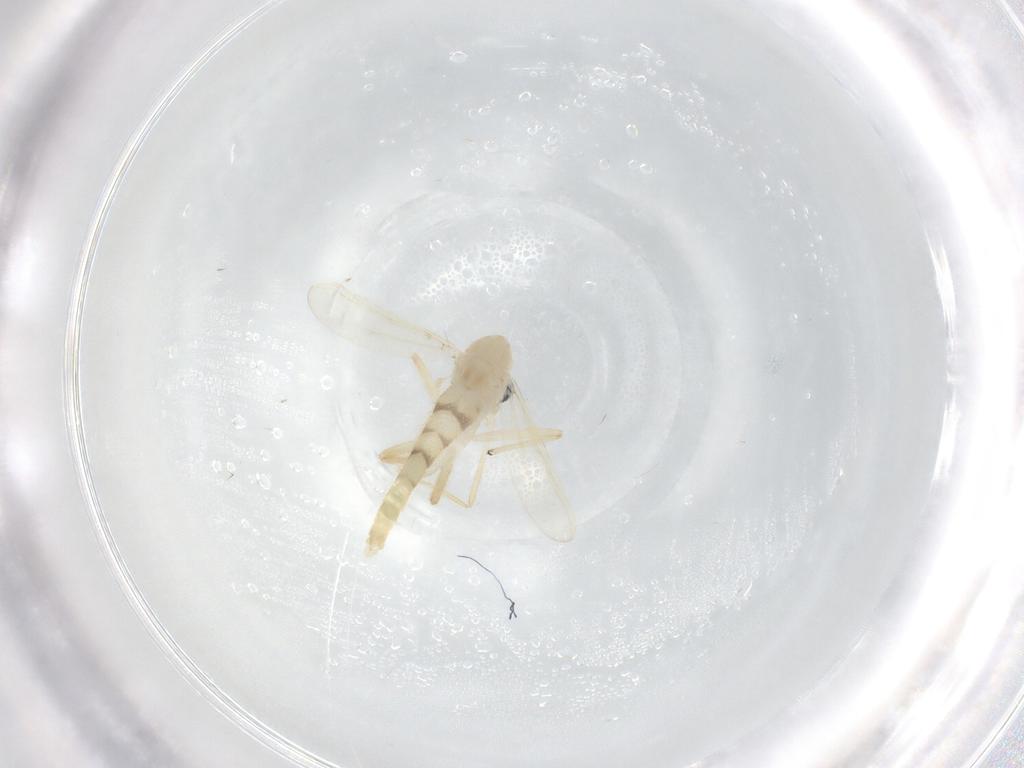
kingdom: Animalia
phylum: Arthropoda
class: Insecta
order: Diptera
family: Chironomidae
